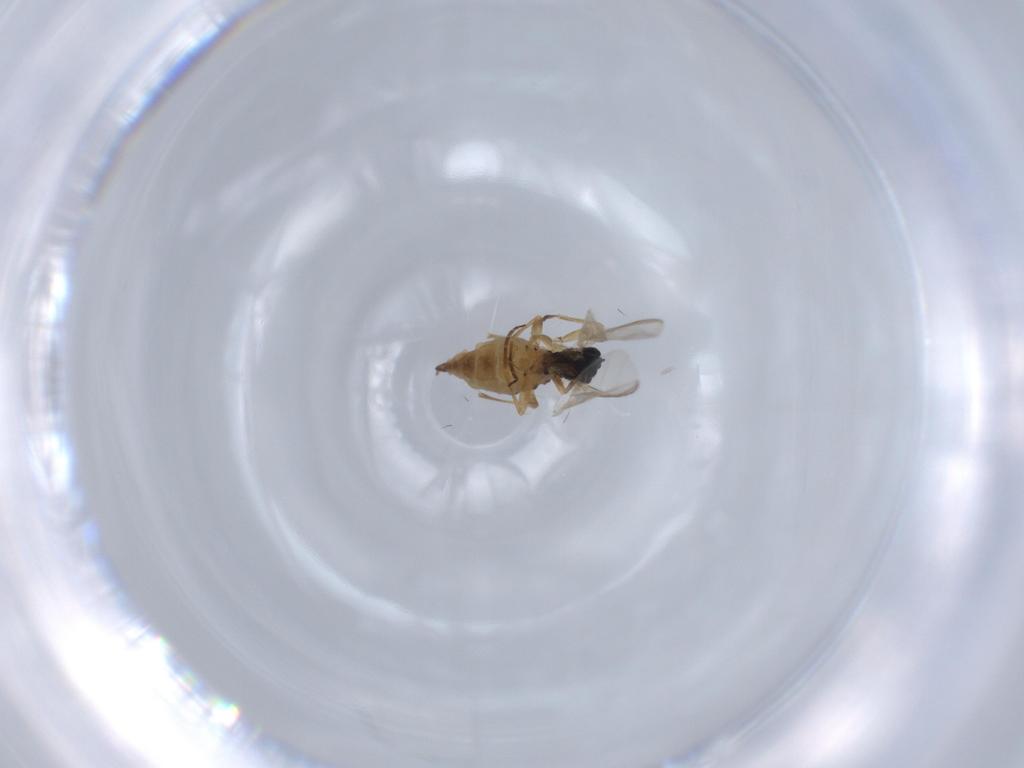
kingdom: Animalia
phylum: Arthropoda
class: Insecta
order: Diptera
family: Sciaridae
